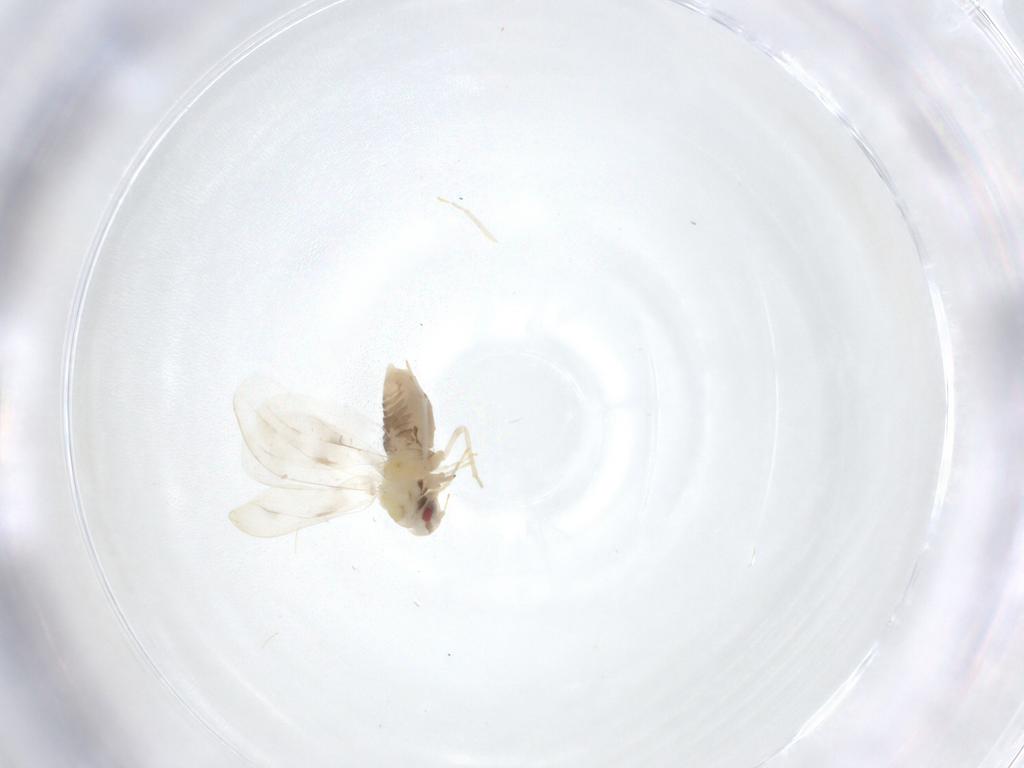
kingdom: Animalia
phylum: Arthropoda
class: Insecta
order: Hemiptera
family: Aleyrodidae
